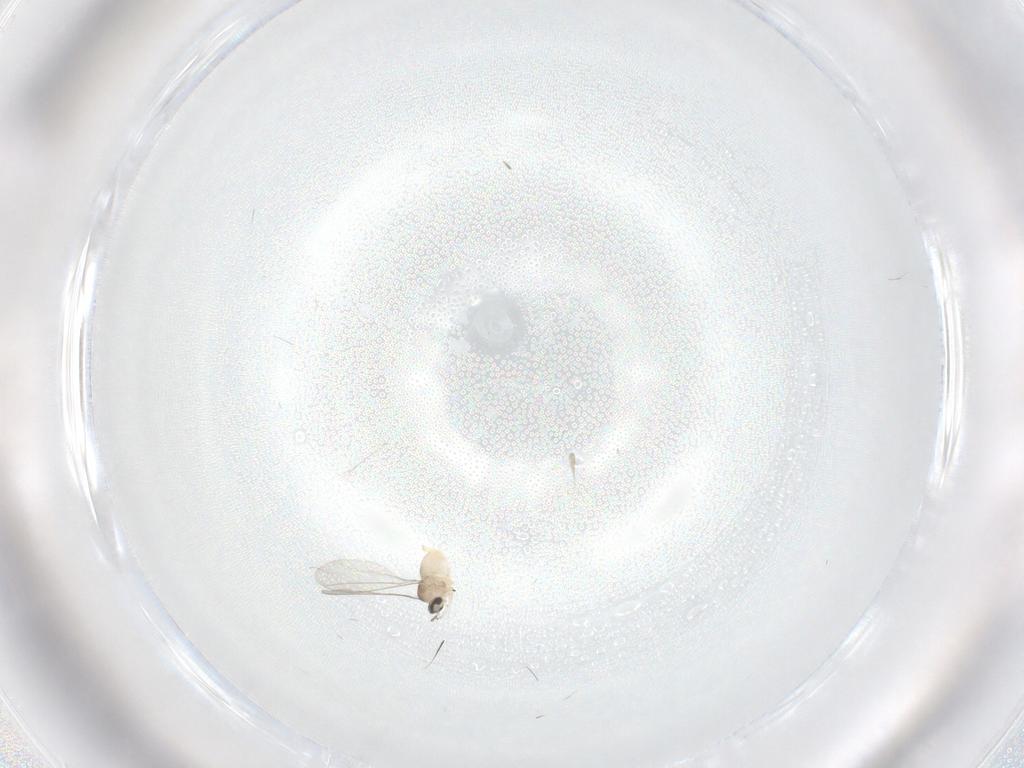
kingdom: Animalia
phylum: Arthropoda
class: Insecta
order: Diptera
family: Cecidomyiidae
